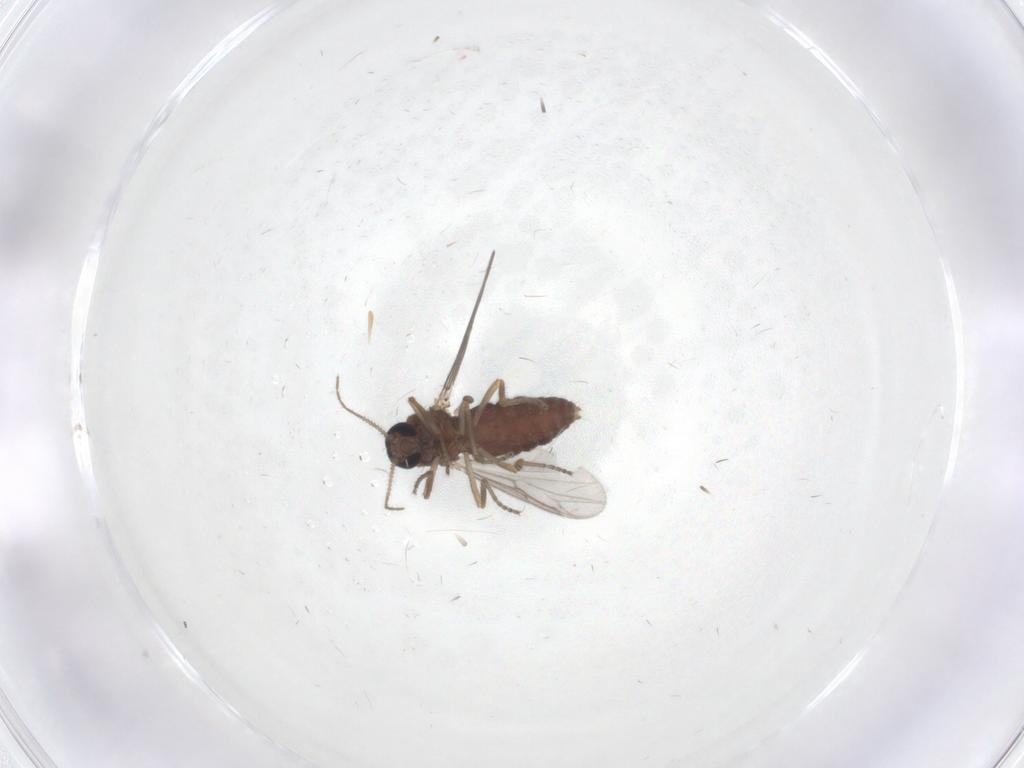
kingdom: Animalia
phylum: Arthropoda
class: Insecta
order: Diptera
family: Ceratopogonidae
